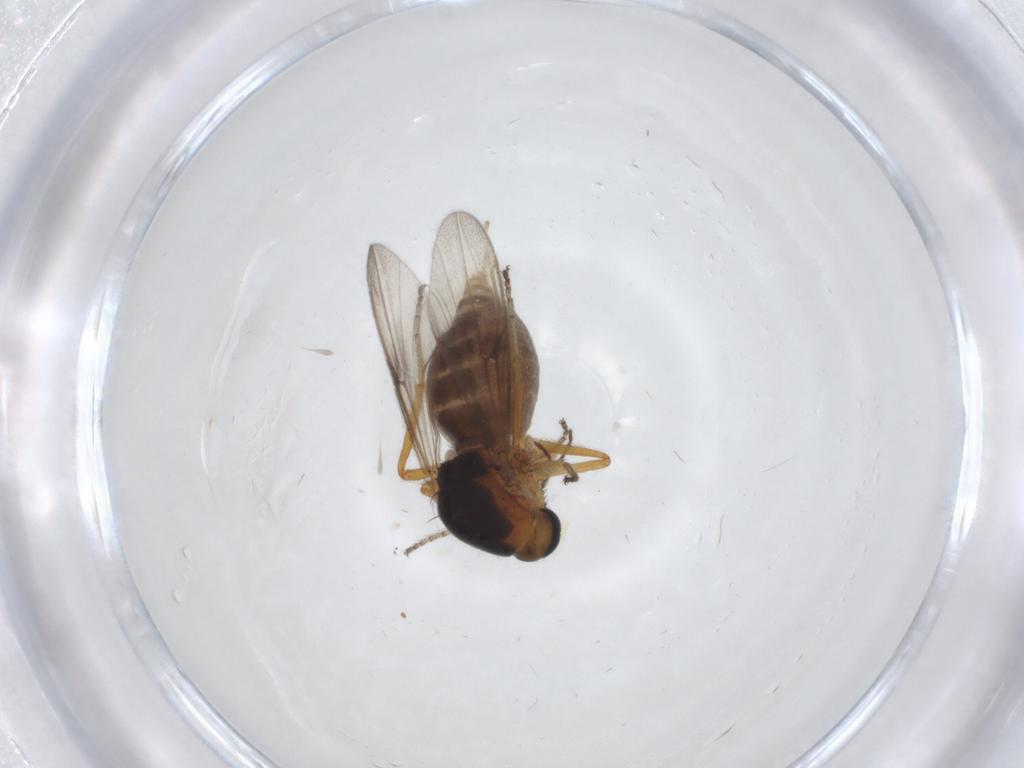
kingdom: Animalia
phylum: Arthropoda
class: Insecta
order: Diptera
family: Ceratopogonidae
